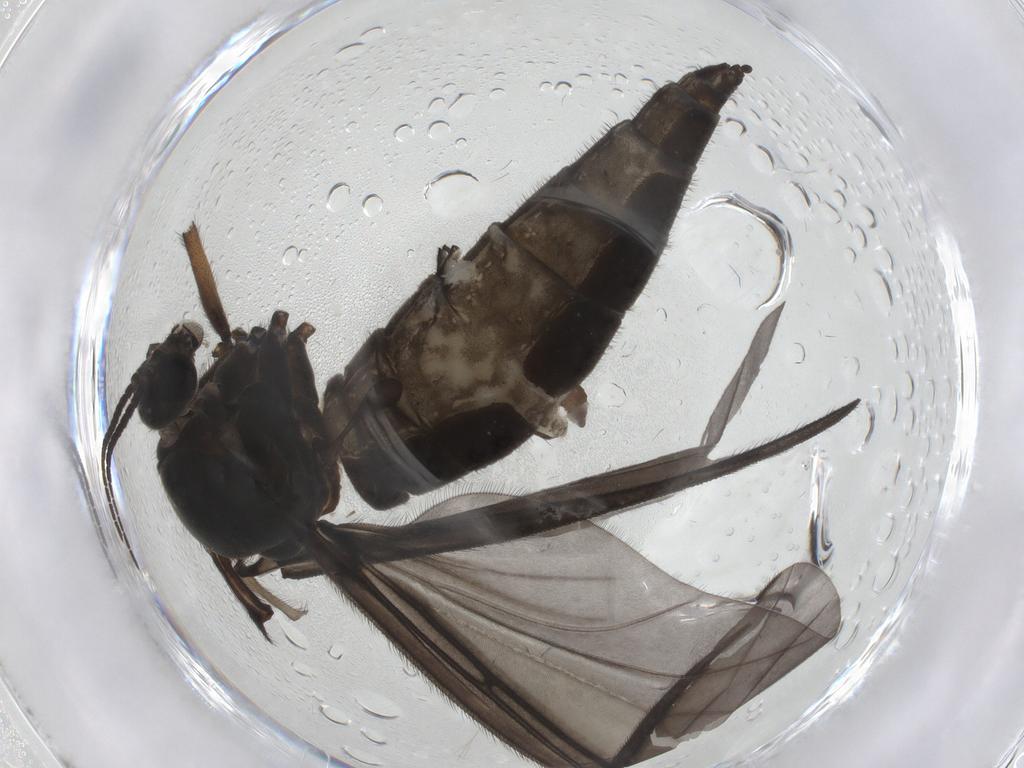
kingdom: Animalia
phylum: Arthropoda
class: Insecta
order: Diptera
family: Sciaridae
